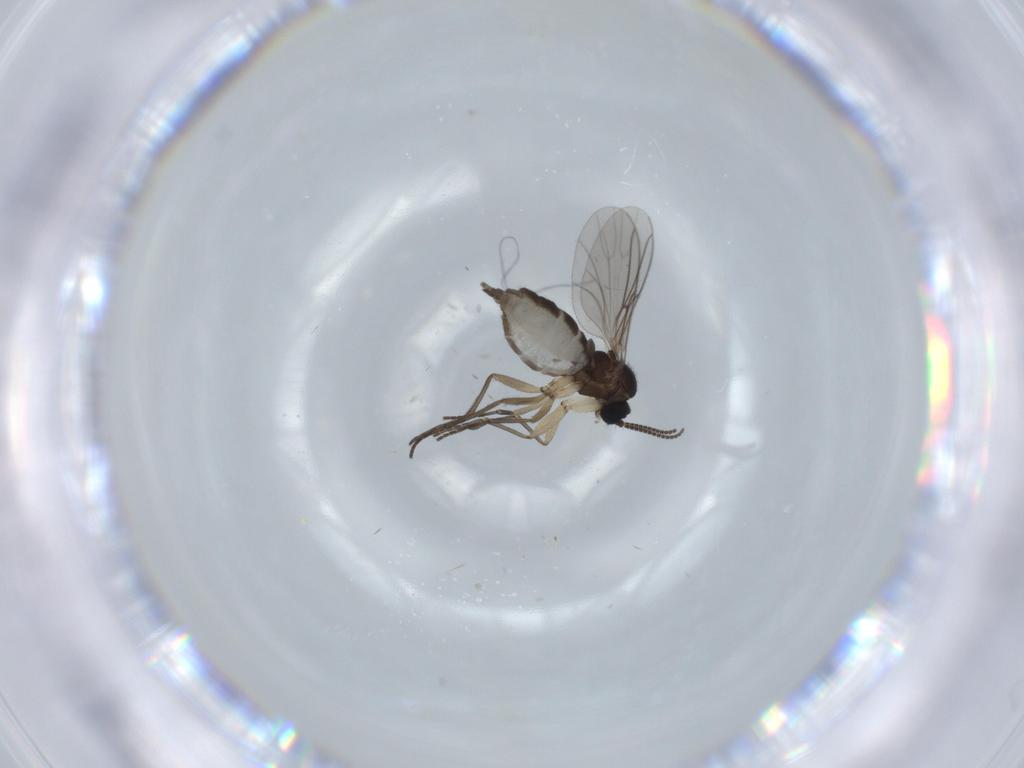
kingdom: Animalia
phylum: Arthropoda
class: Insecta
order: Diptera
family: Sciaridae
